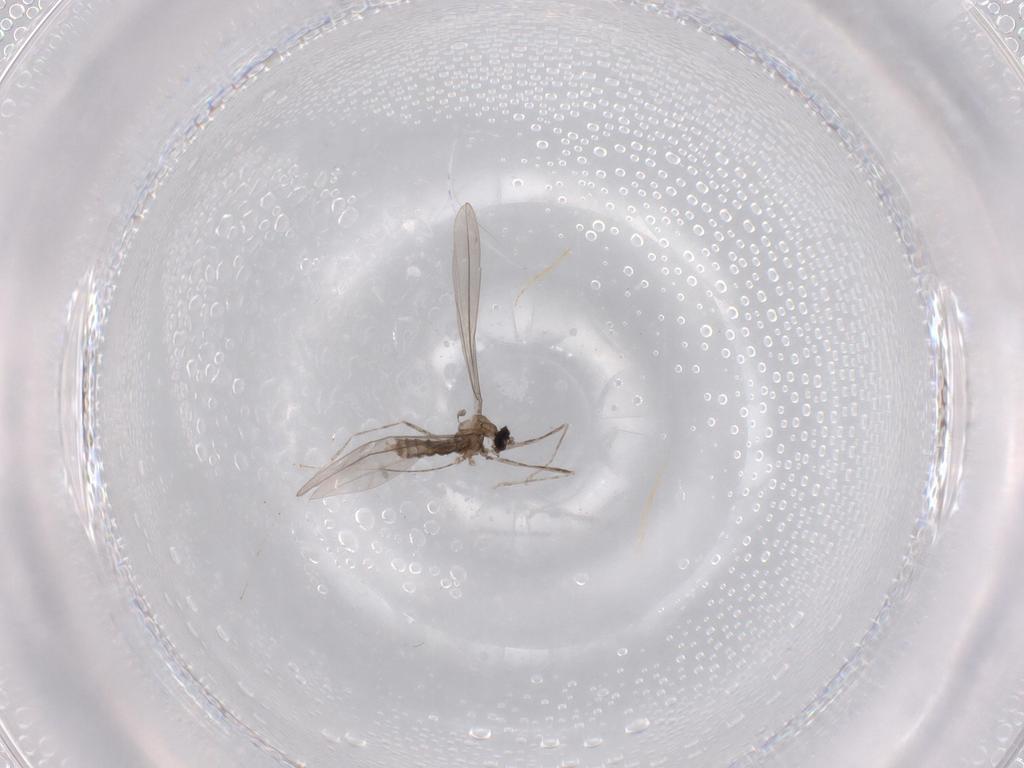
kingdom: Animalia
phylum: Arthropoda
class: Insecta
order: Diptera
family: Chironomidae
